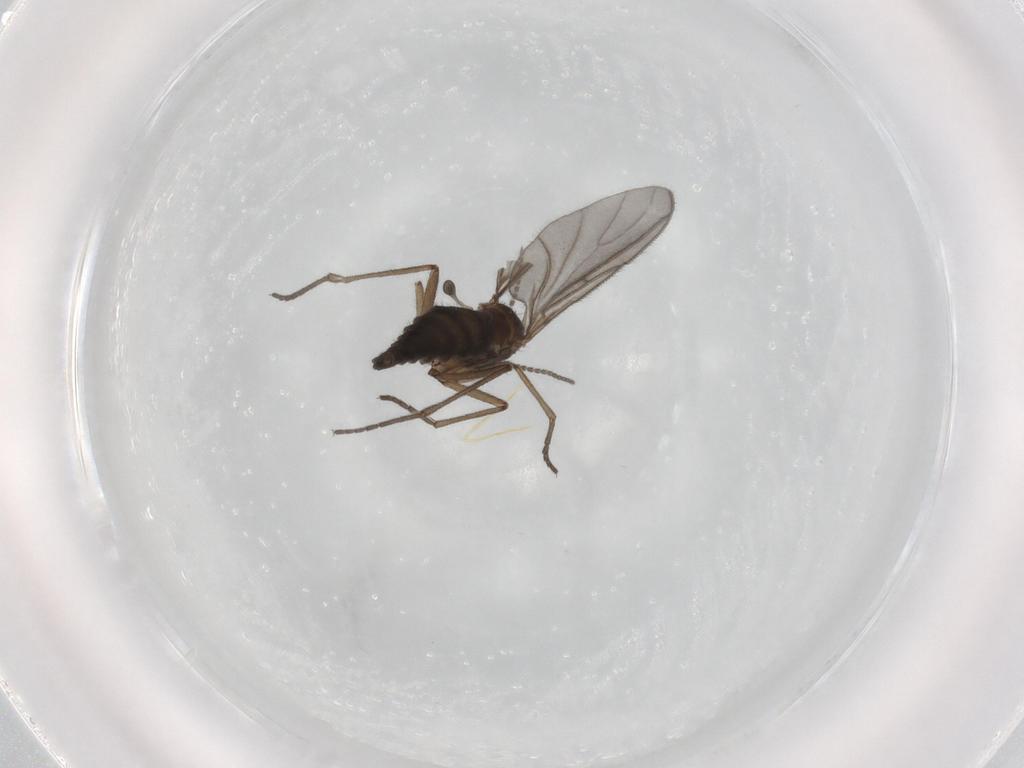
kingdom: Animalia
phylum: Arthropoda
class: Insecta
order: Diptera
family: Sciaridae
